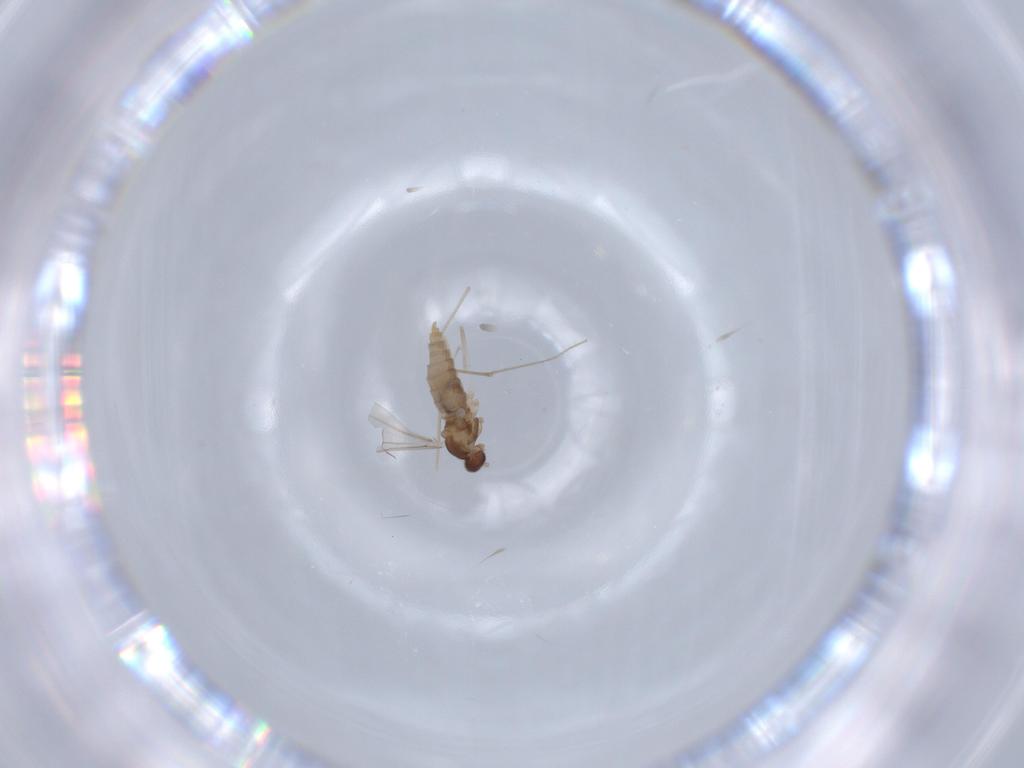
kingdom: Animalia
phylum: Arthropoda
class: Insecta
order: Diptera
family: Cecidomyiidae
